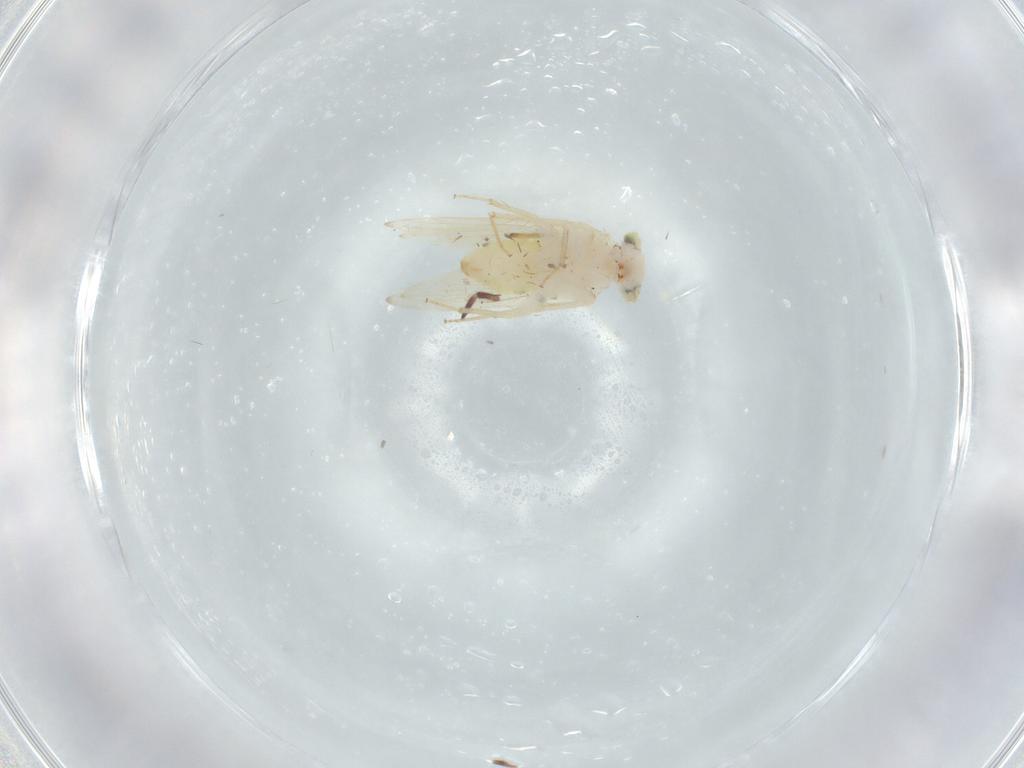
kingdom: Animalia
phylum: Arthropoda
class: Insecta
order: Psocodea
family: Lepidopsocidae
